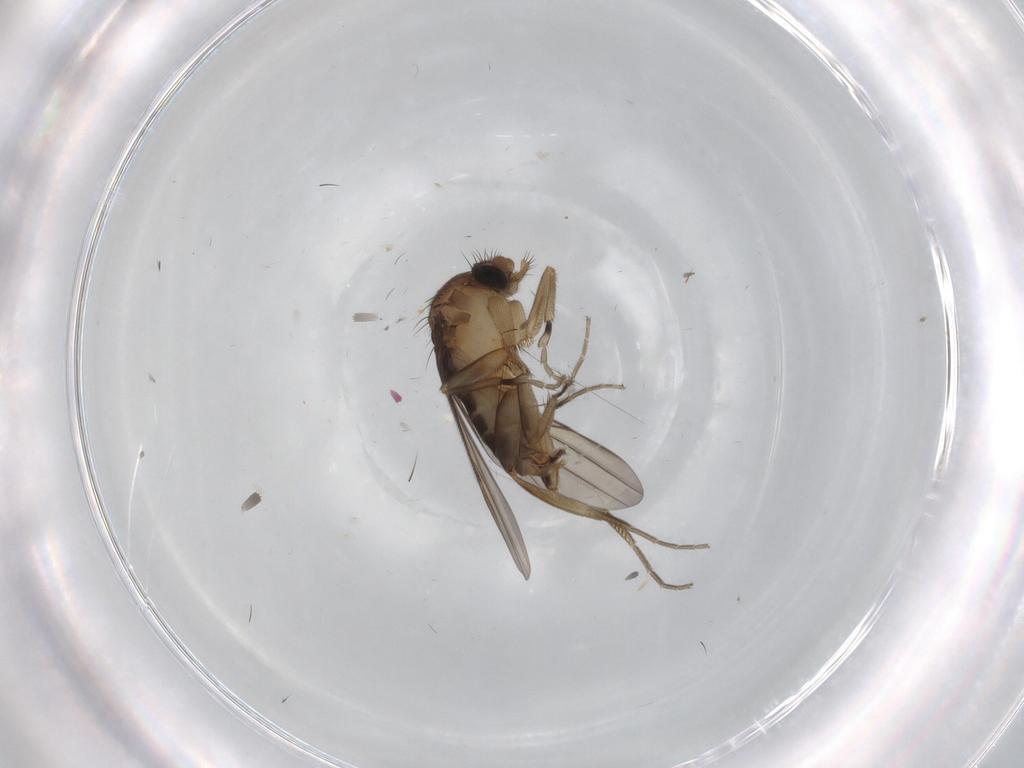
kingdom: Animalia
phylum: Arthropoda
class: Insecta
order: Diptera
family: Phoridae
